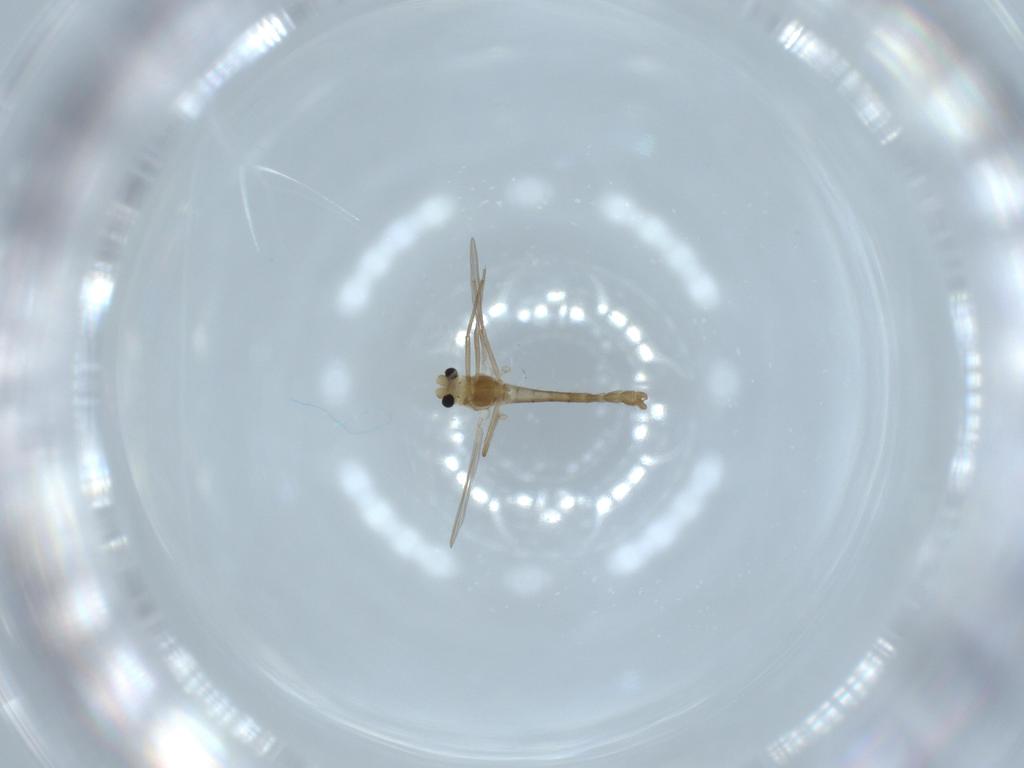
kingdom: Animalia
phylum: Arthropoda
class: Insecta
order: Diptera
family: Chironomidae
